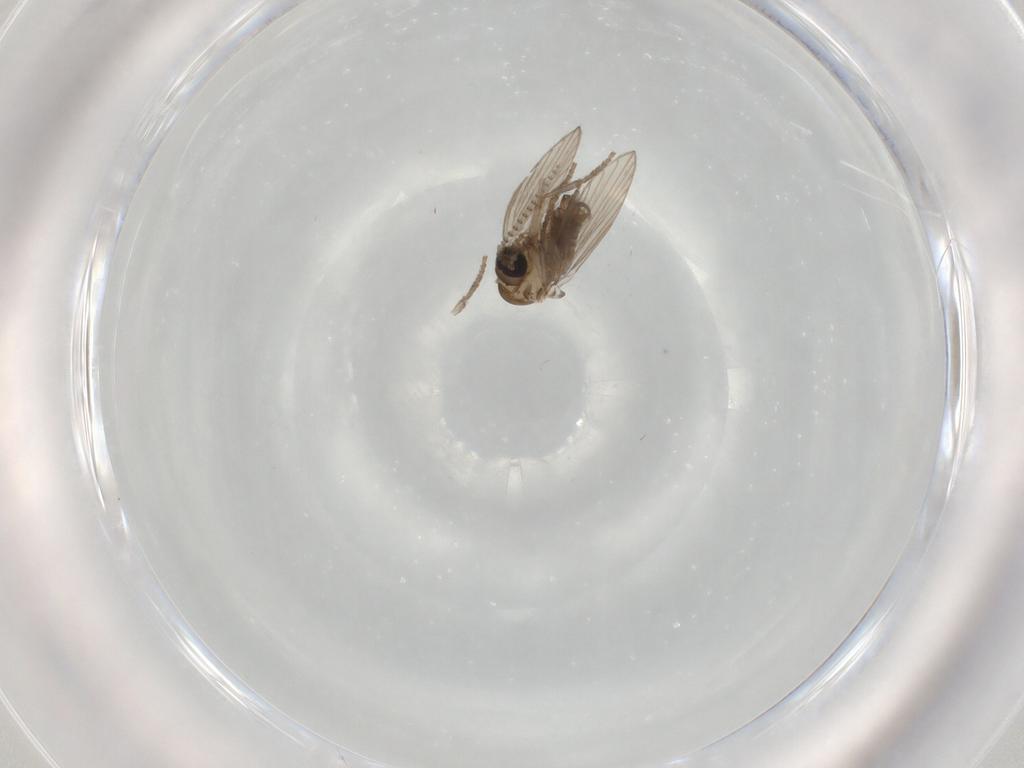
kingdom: Animalia
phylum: Arthropoda
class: Insecta
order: Diptera
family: Psychodidae
